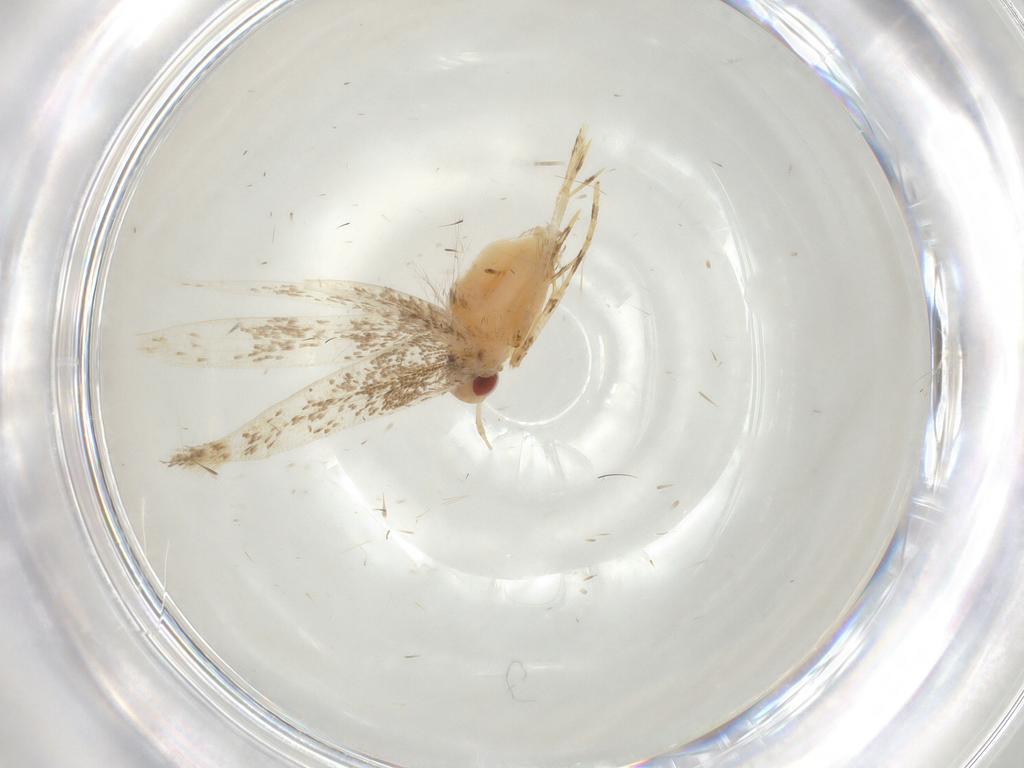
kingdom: Animalia
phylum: Arthropoda
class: Insecta
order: Lepidoptera
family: Cosmopterigidae
